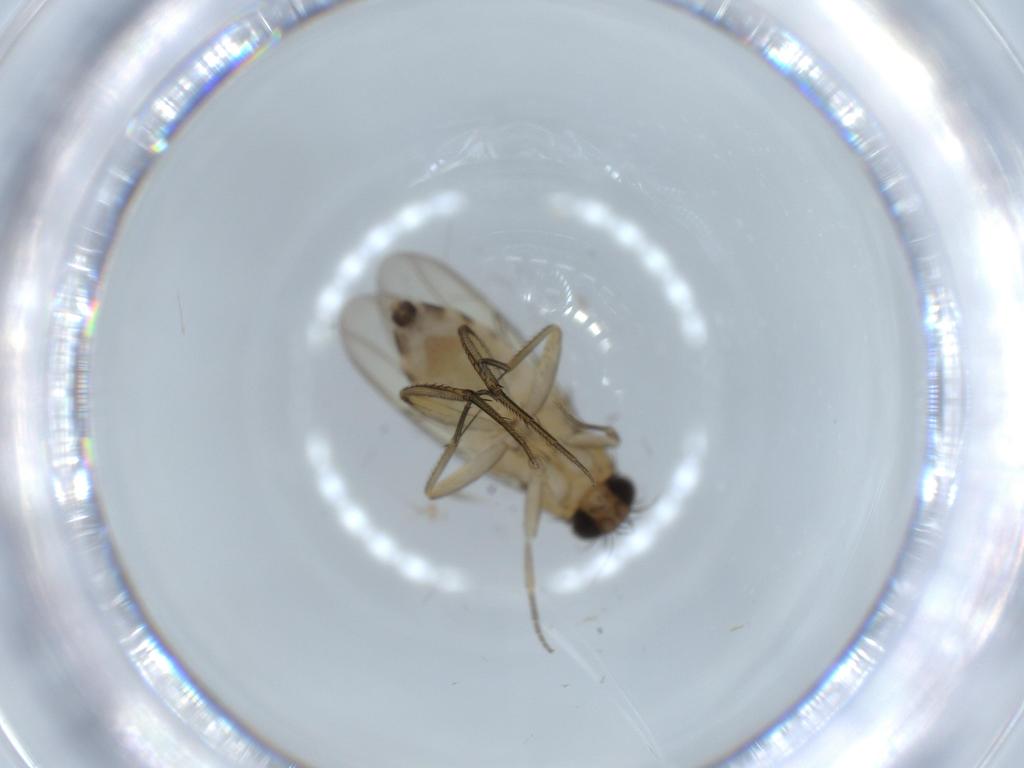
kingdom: Animalia
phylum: Arthropoda
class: Insecta
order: Diptera
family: Phoridae
